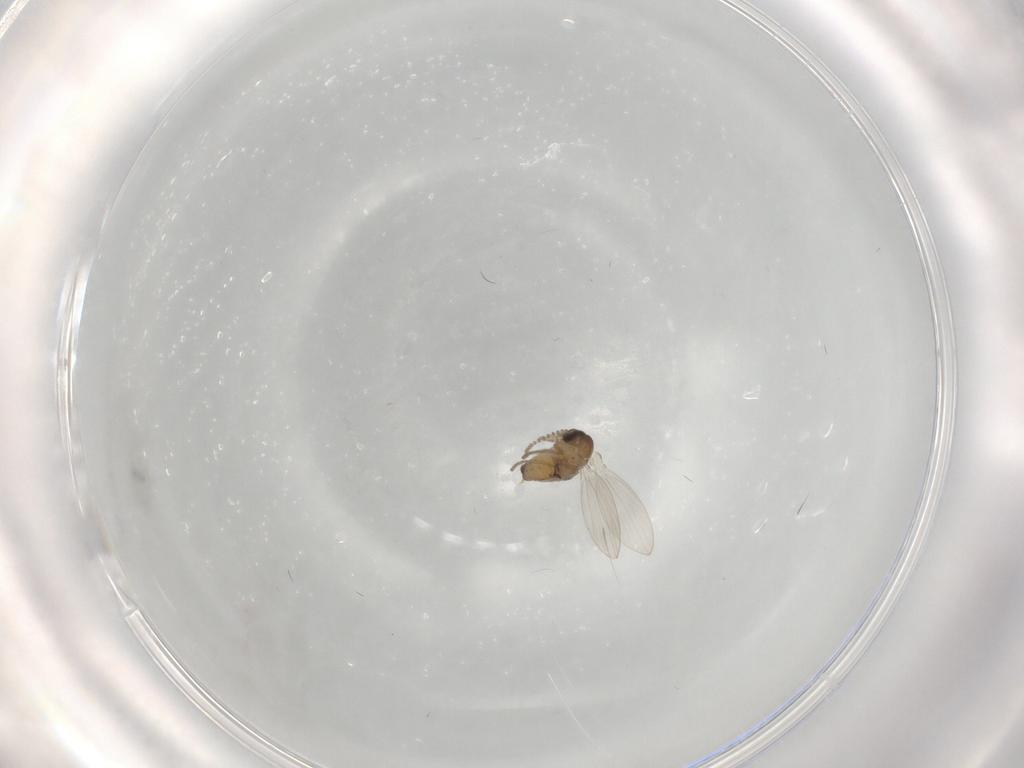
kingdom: Animalia
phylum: Arthropoda
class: Insecta
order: Diptera
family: Psychodidae
